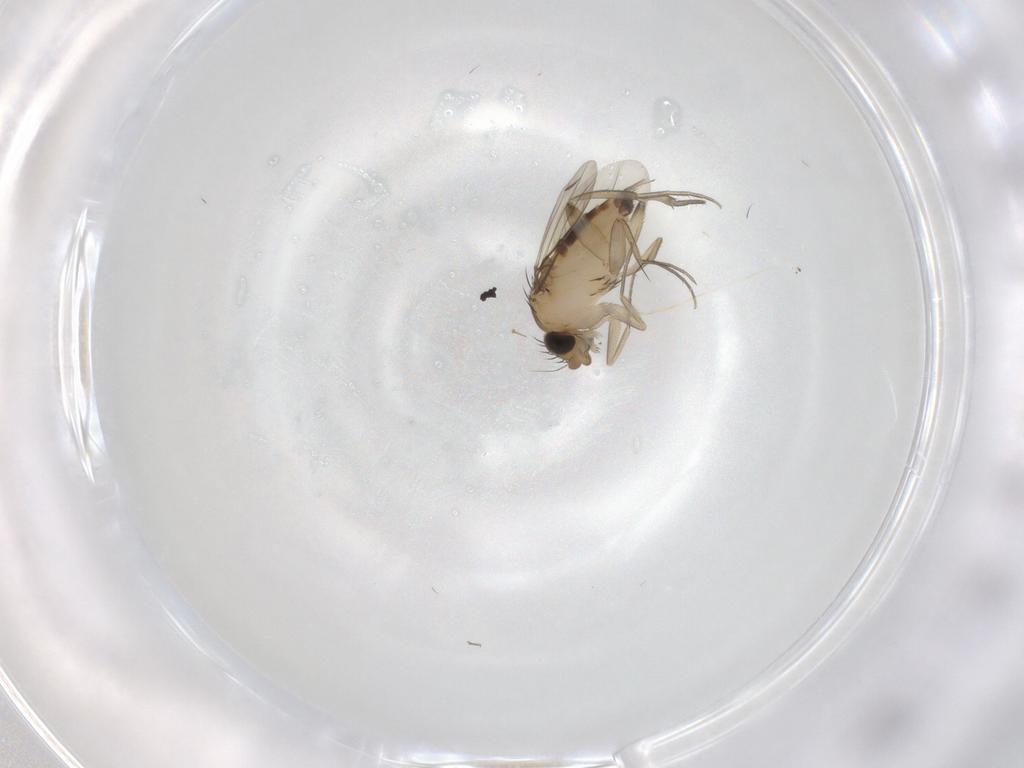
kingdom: Animalia
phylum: Arthropoda
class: Insecta
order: Diptera
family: Phoridae
